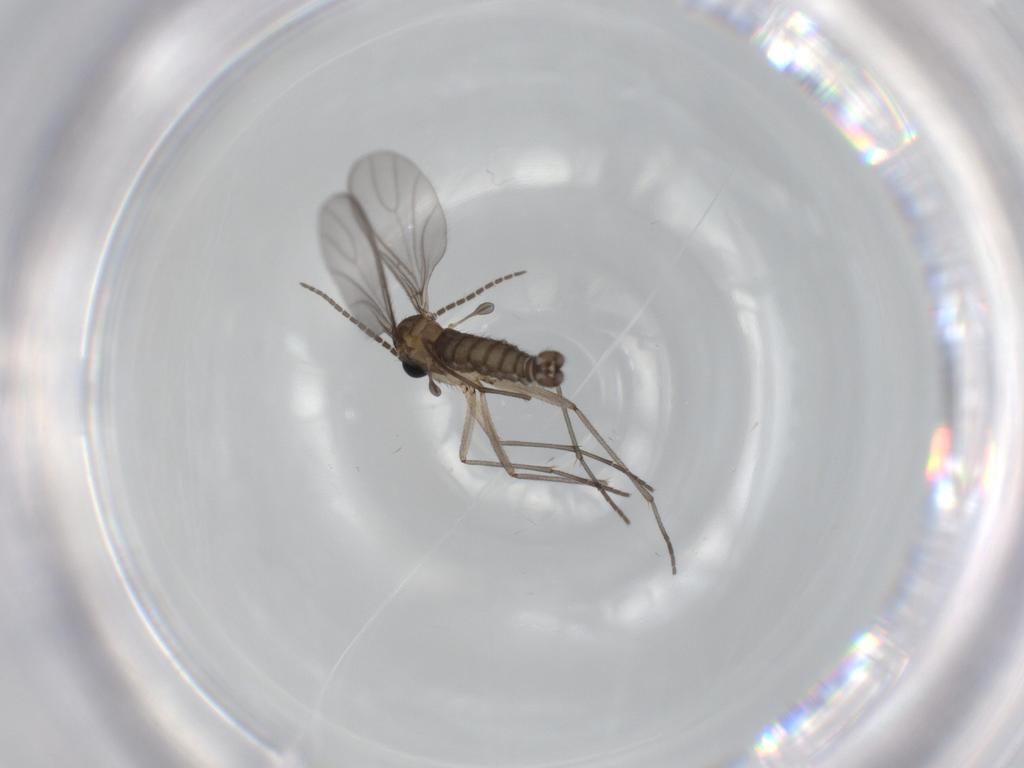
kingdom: Animalia
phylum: Arthropoda
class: Insecta
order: Diptera
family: Sciaridae
